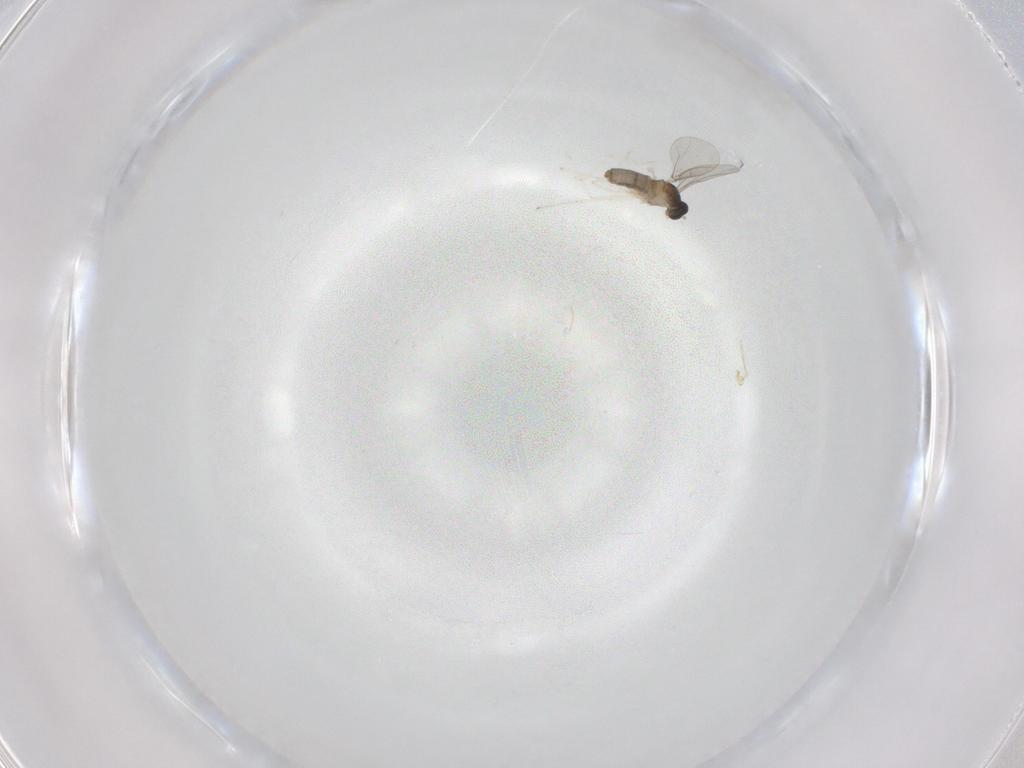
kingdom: Animalia
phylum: Arthropoda
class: Insecta
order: Diptera
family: Cecidomyiidae
